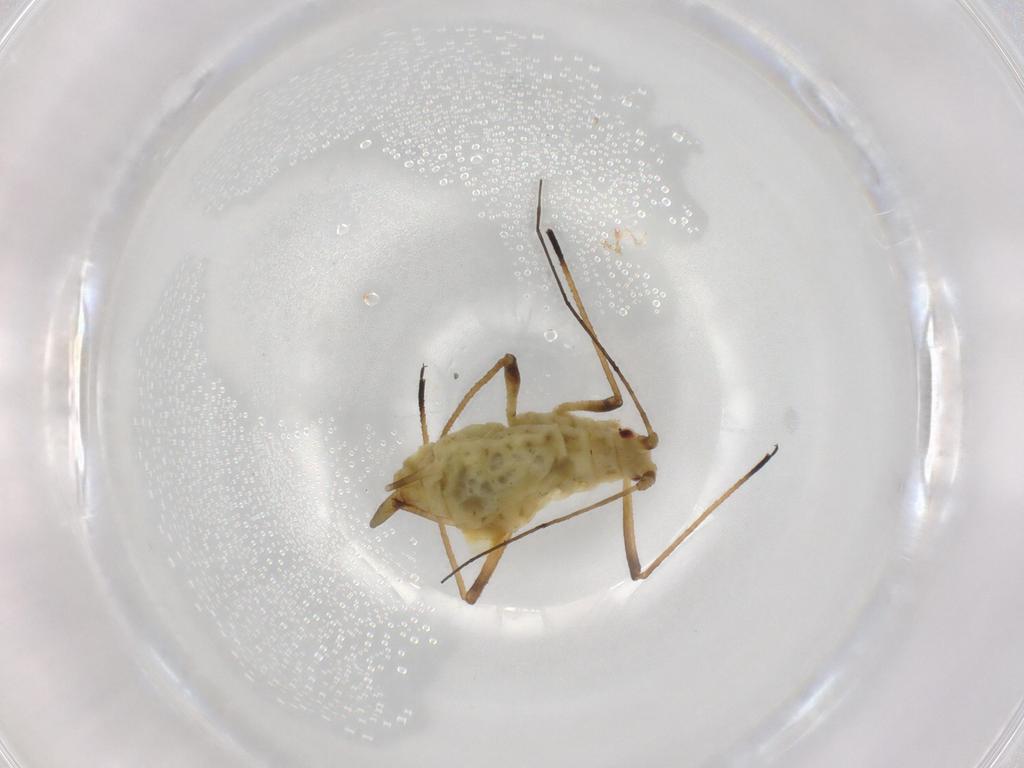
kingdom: Animalia
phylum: Arthropoda
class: Insecta
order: Hemiptera
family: Aphididae
